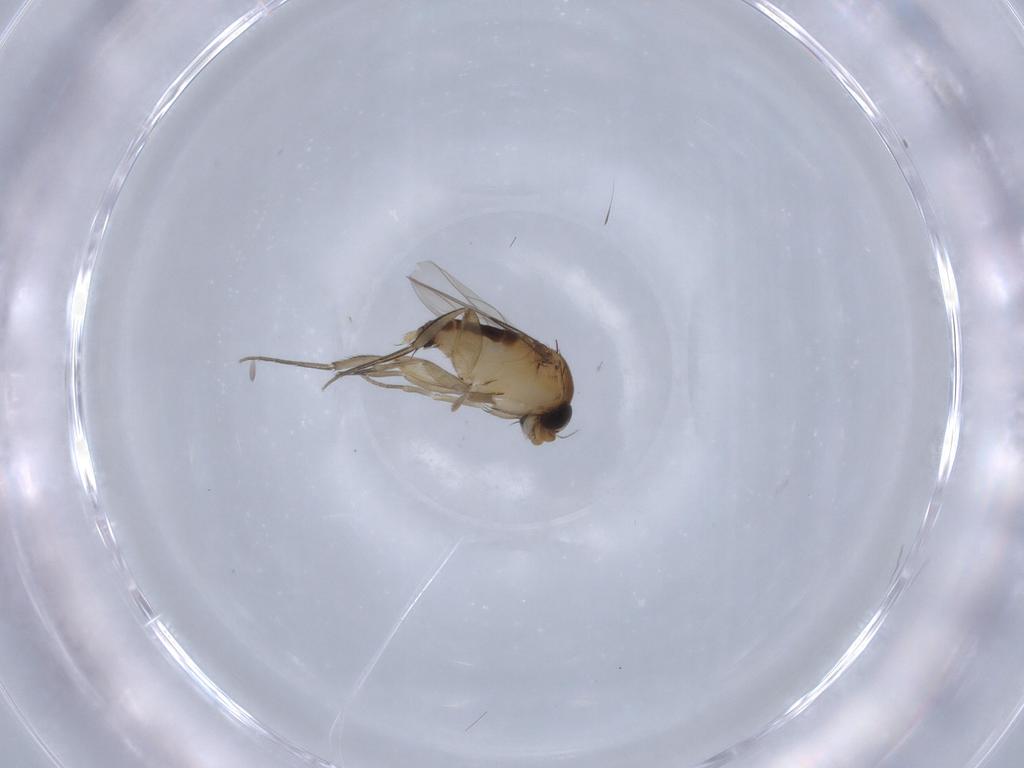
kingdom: Animalia
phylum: Arthropoda
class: Insecta
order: Diptera
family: Phoridae
